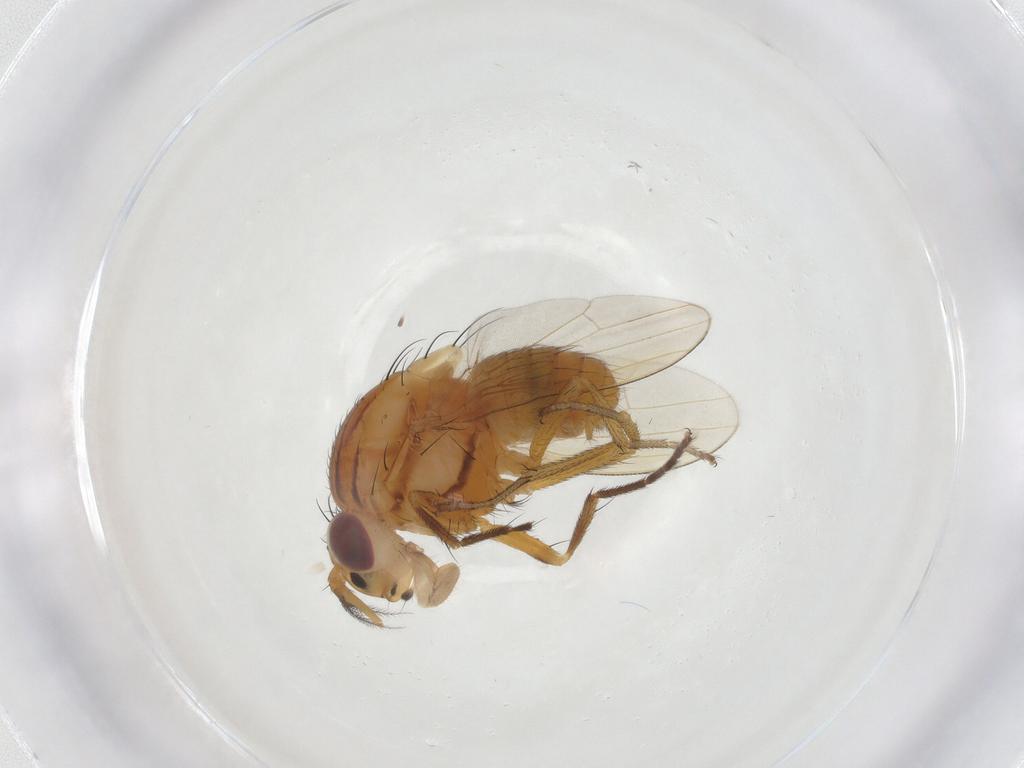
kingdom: Animalia
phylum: Arthropoda
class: Insecta
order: Diptera
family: Lauxaniidae
